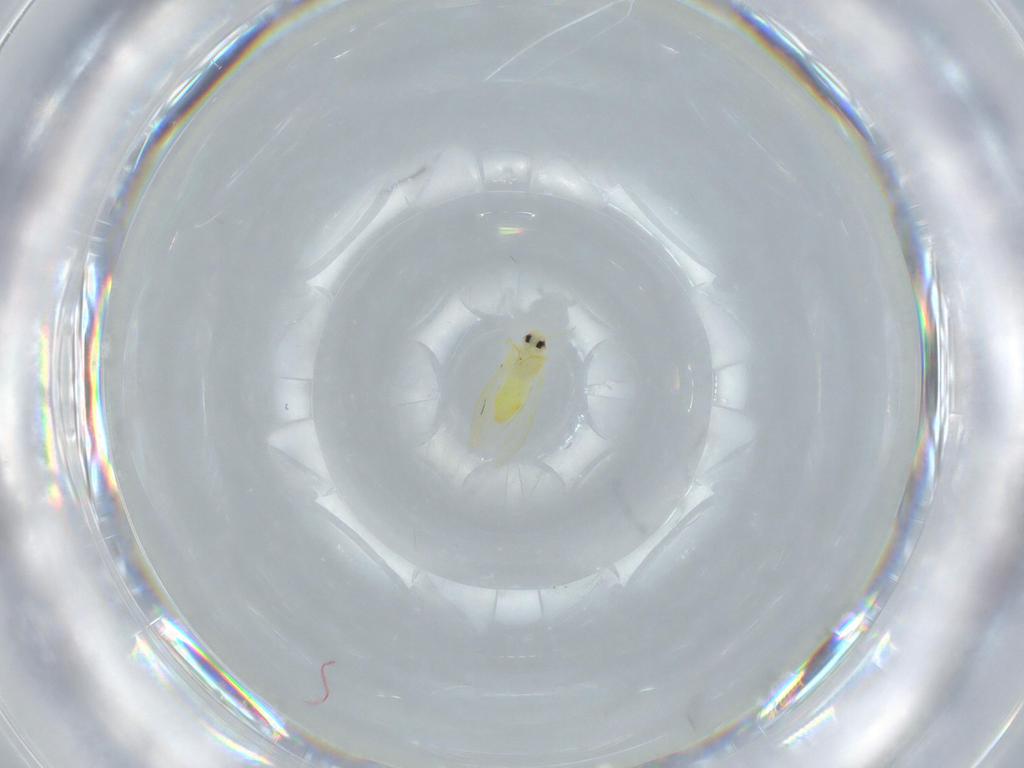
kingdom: Animalia
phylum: Arthropoda
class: Insecta
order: Hemiptera
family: Aleyrodidae
